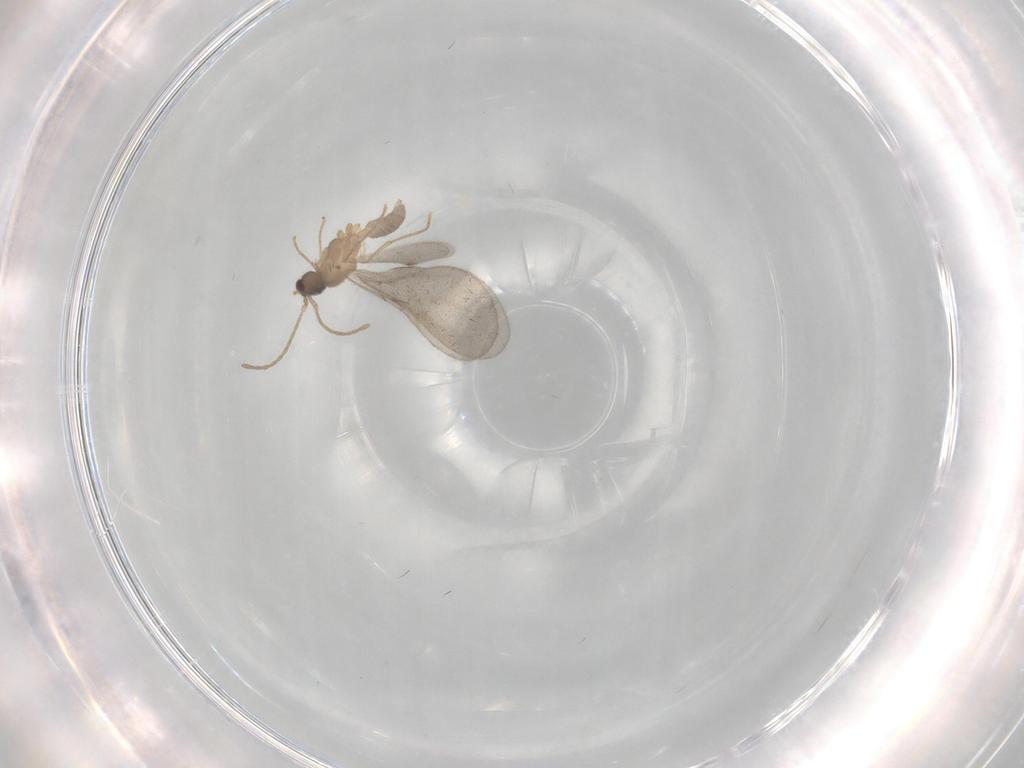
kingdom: Animalia
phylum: Arthropoda
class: Insecta
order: Hymenoptera
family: Formicidae
